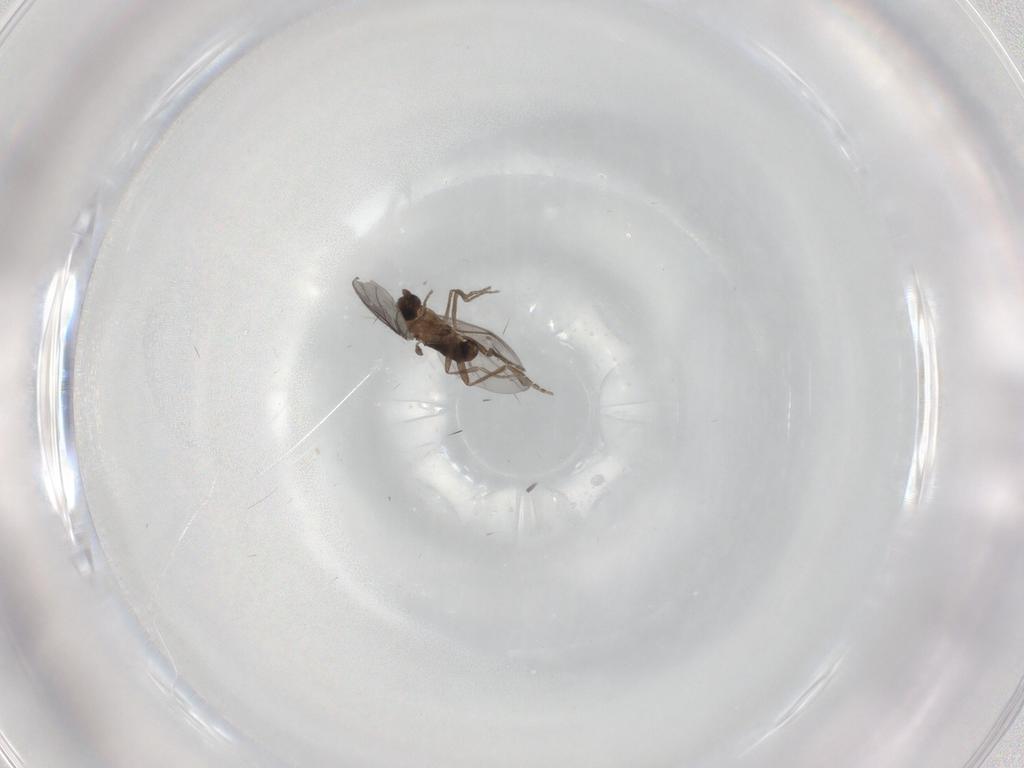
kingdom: Animalia
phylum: Arthropoda
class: Insecta
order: Diptera
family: Cecidomyiidae
